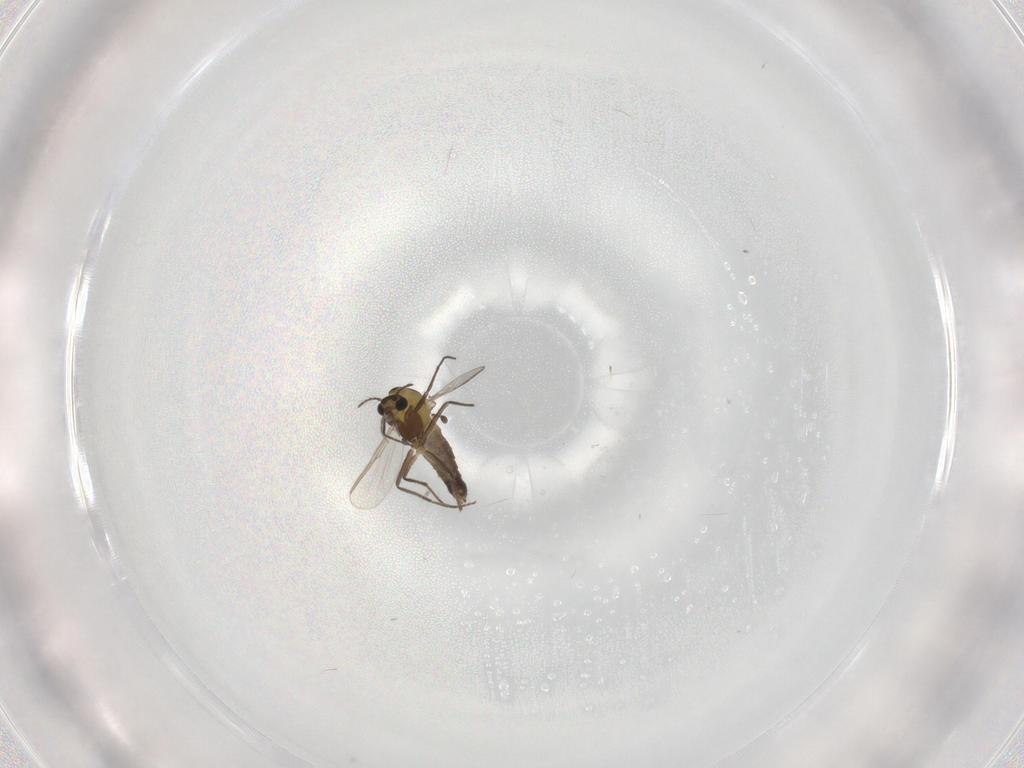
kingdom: Animalia
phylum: Arthropoda
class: Insecta
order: Diptera
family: Chironomidae
